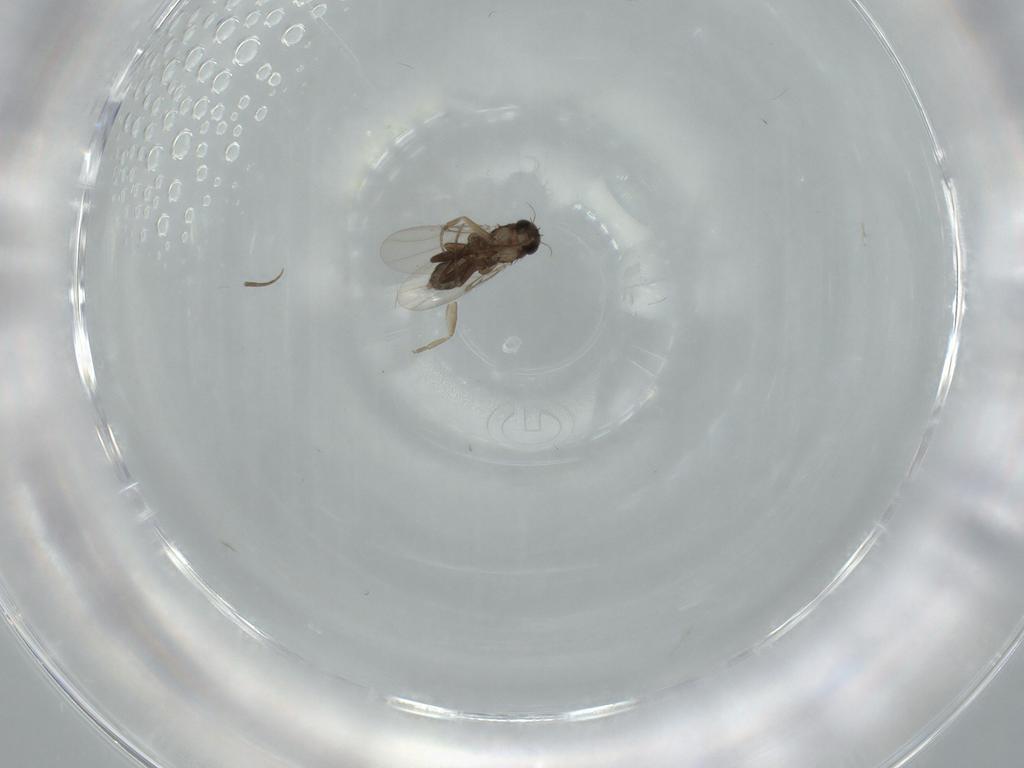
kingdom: Animalia
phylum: Arthropoda
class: Insecta
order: Diptera
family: Phoridae
